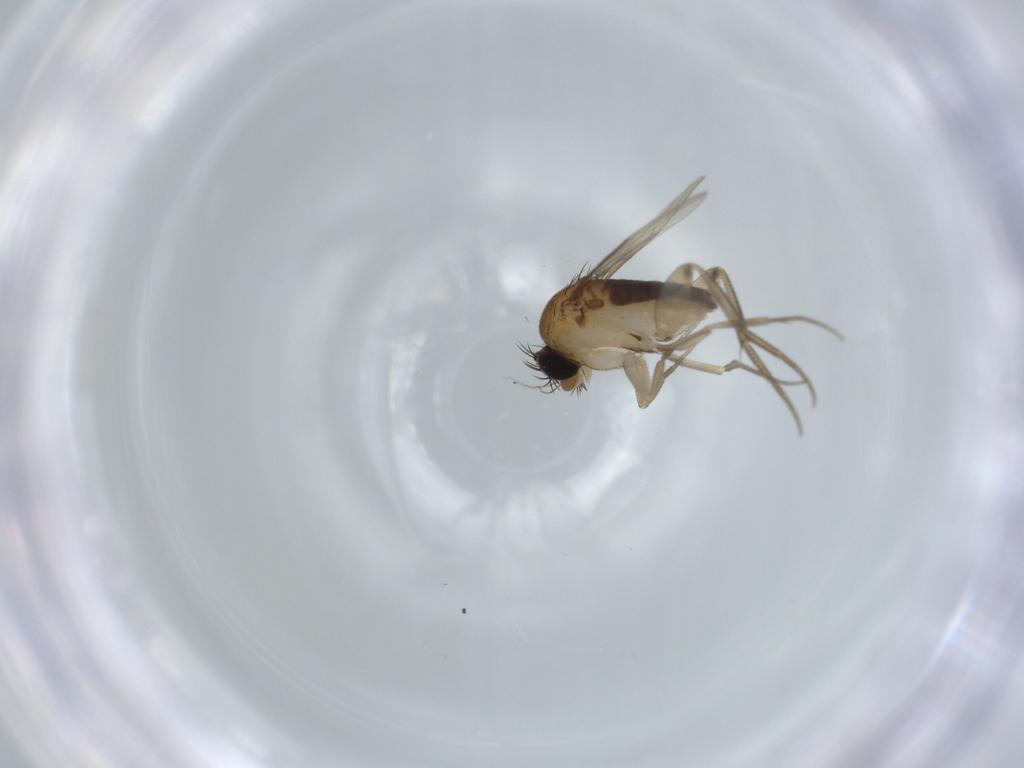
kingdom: Animalia
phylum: Arthropoda
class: Insecta
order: Diptera
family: Phoridae
